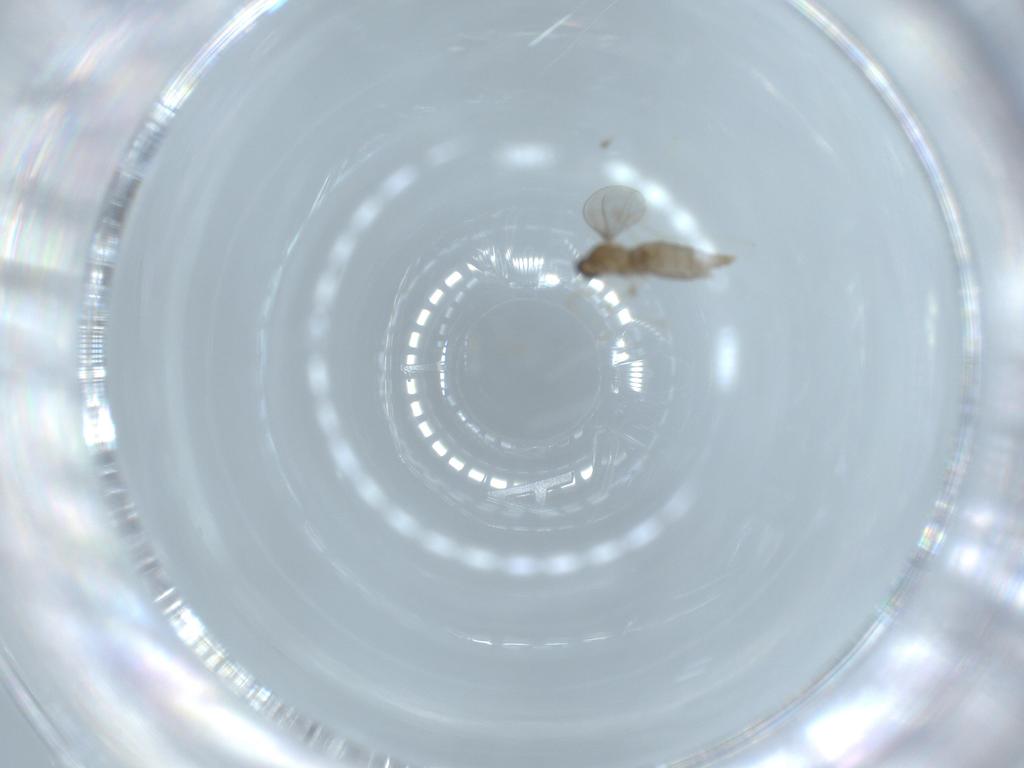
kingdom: Animalia
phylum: Arthropoda
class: Insecta
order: Diptera
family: Cecidomyiidae
